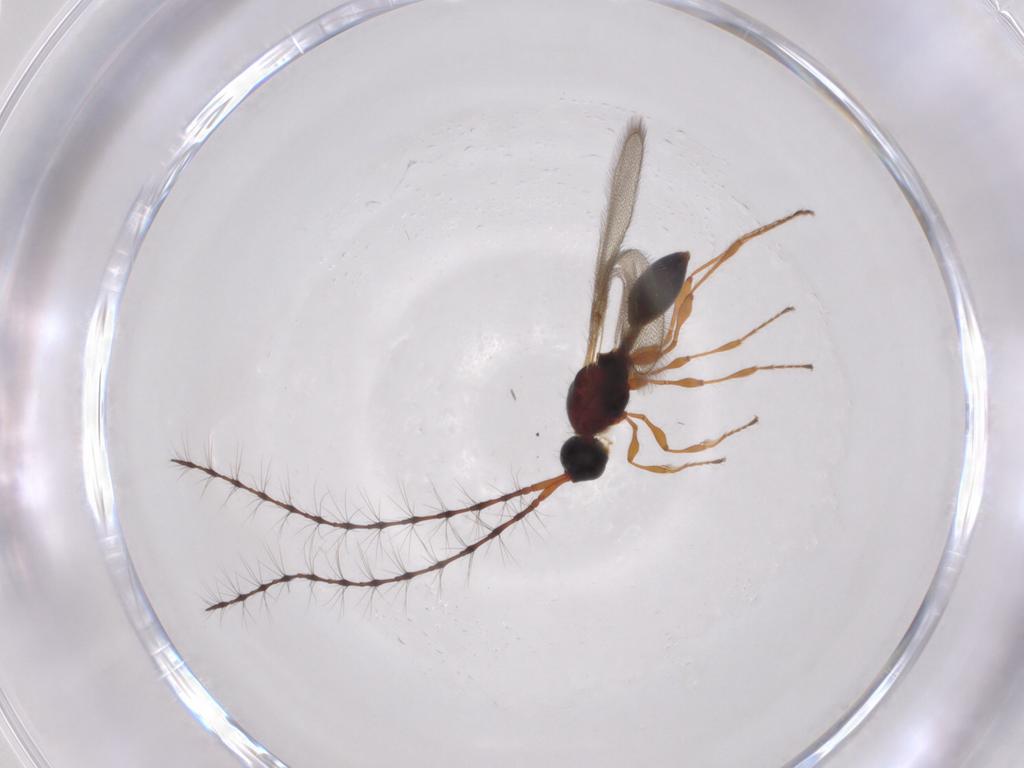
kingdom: Animalia
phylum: Arthropoda
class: Insecta
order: Hymenoptera
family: Diapriidae
